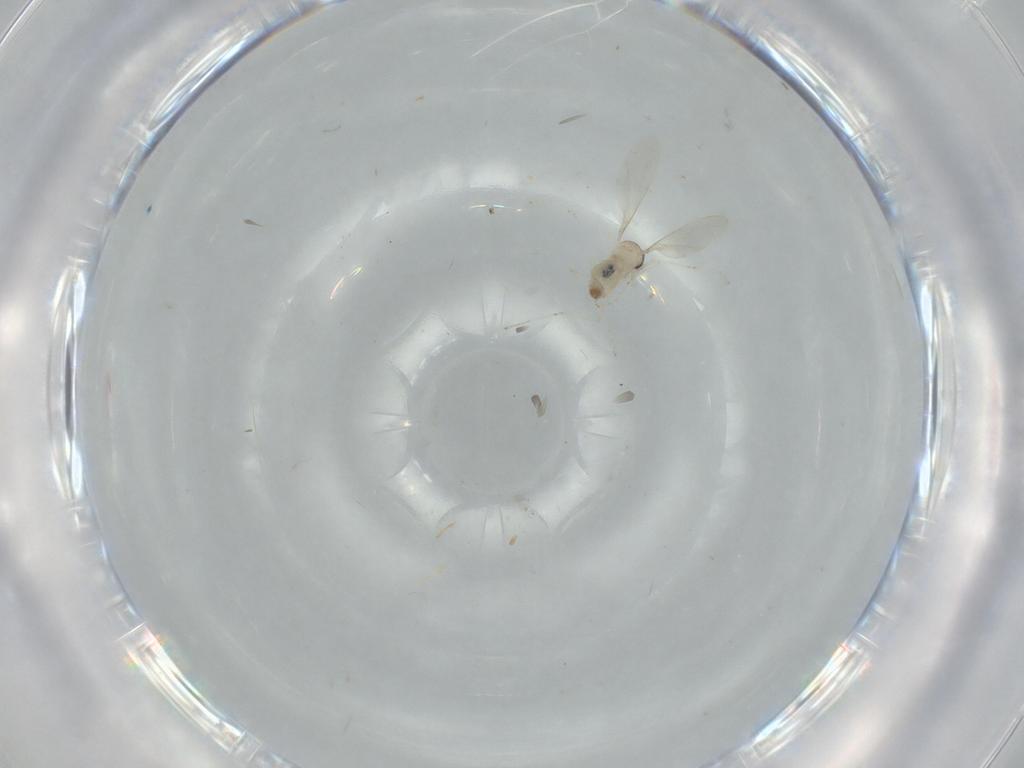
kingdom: Animalia
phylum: Arthropoda
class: Insecta
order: Diptera
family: Cecidomyiidae
